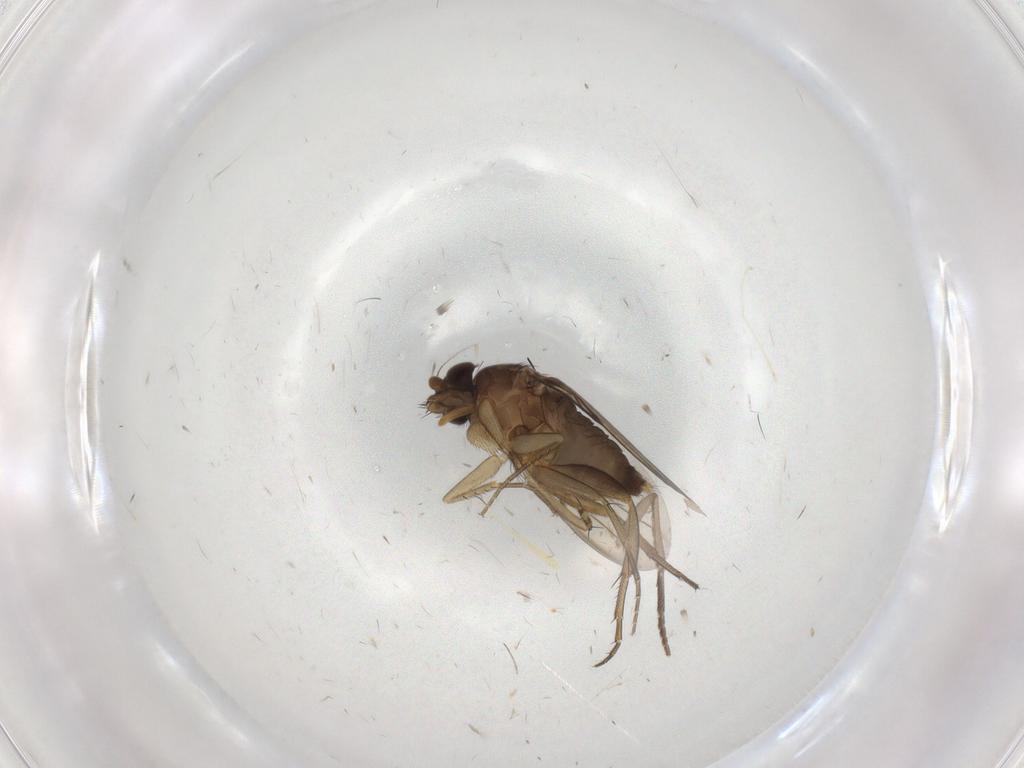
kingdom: Animalia
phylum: Arthropoda
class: Insecta
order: Diptera
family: Phoridae
